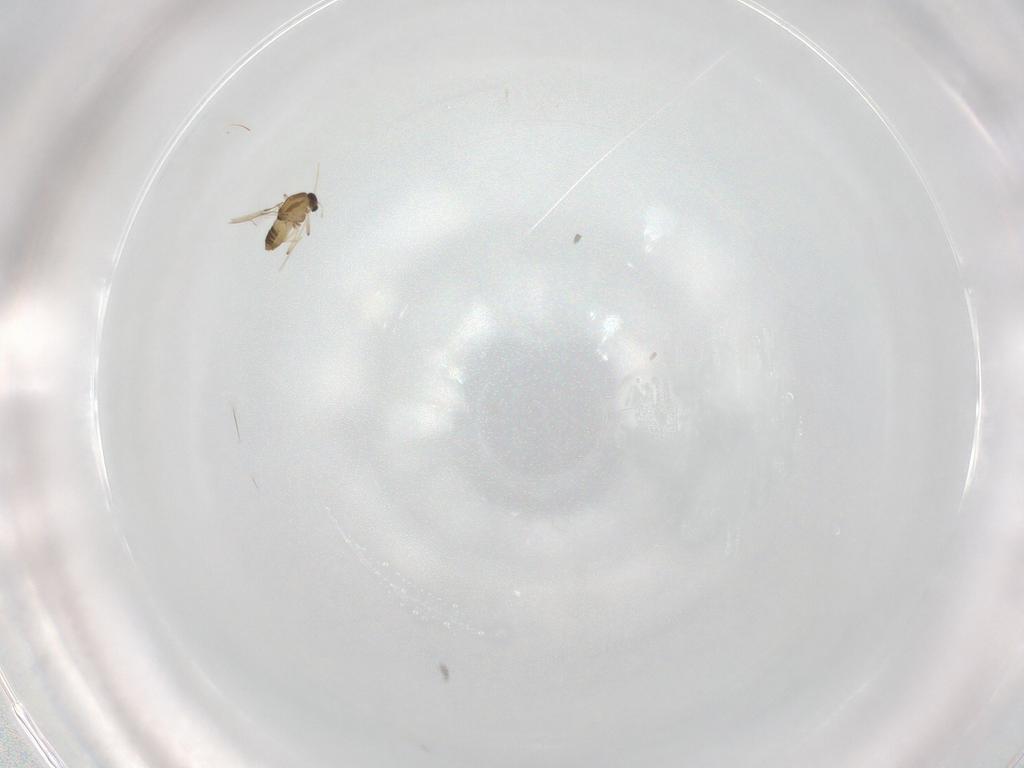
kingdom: Animalia
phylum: Arthropoda
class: Insecta
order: Diptera
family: Chironomidae
